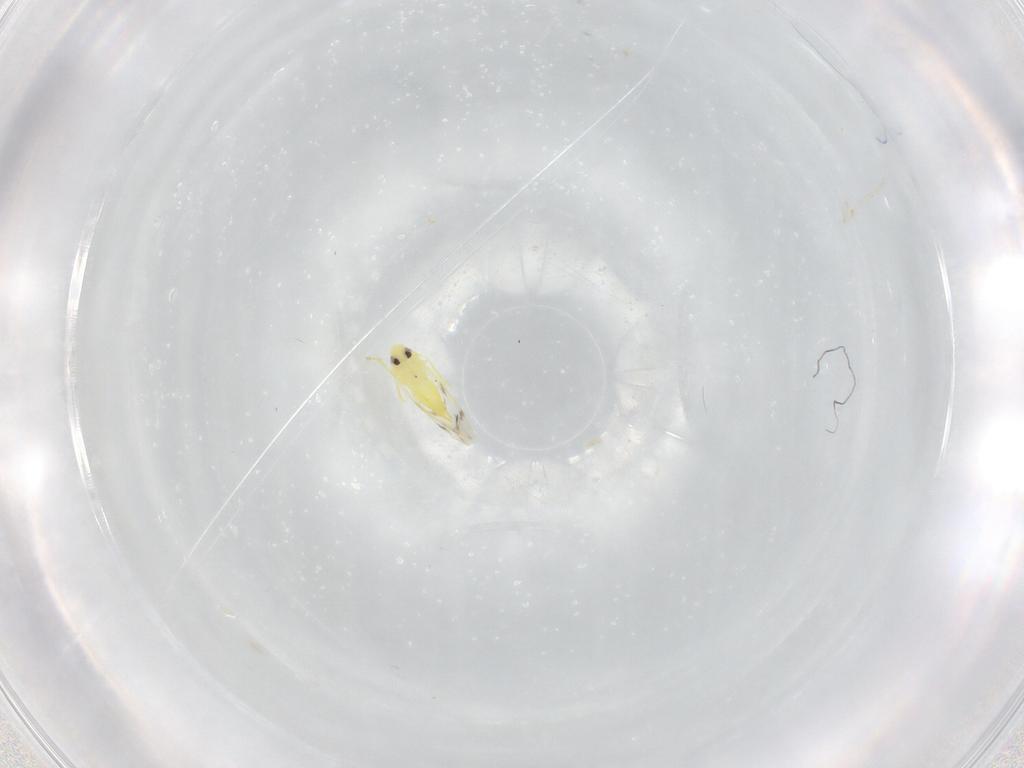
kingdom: Animalia
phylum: Arthropoda
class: Insecta
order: Hemiptera
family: Aleyrodidae
